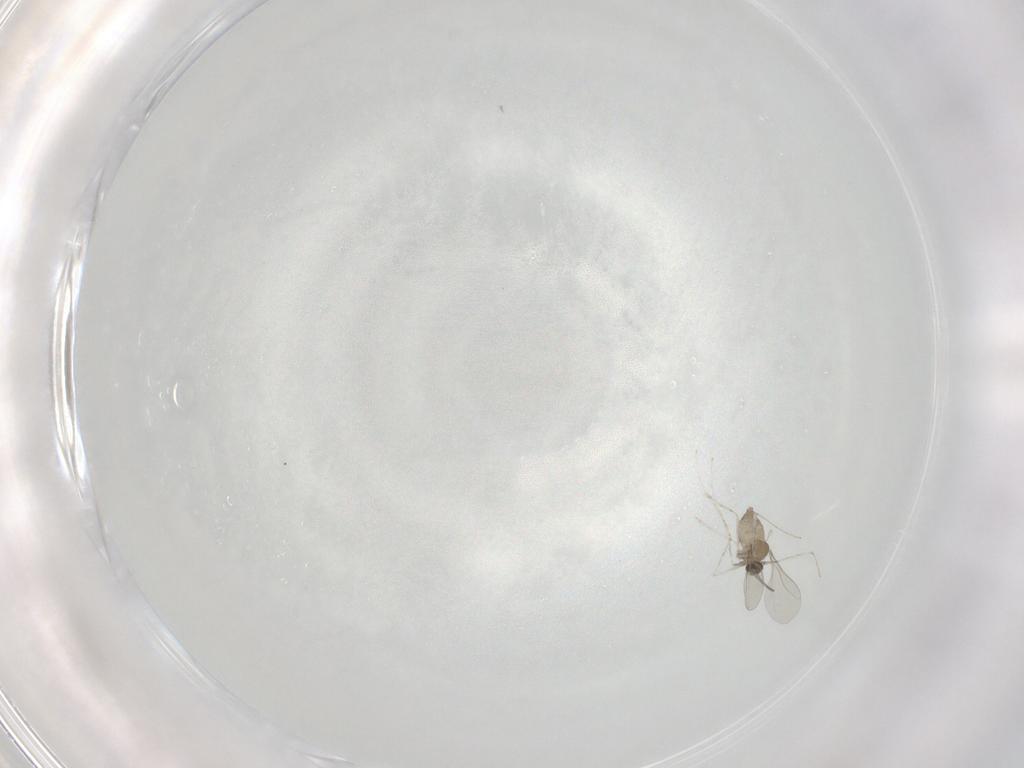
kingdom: Animalia
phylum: Arthropoda
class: Insecta
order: Diptera
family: Cecidomyiidae
